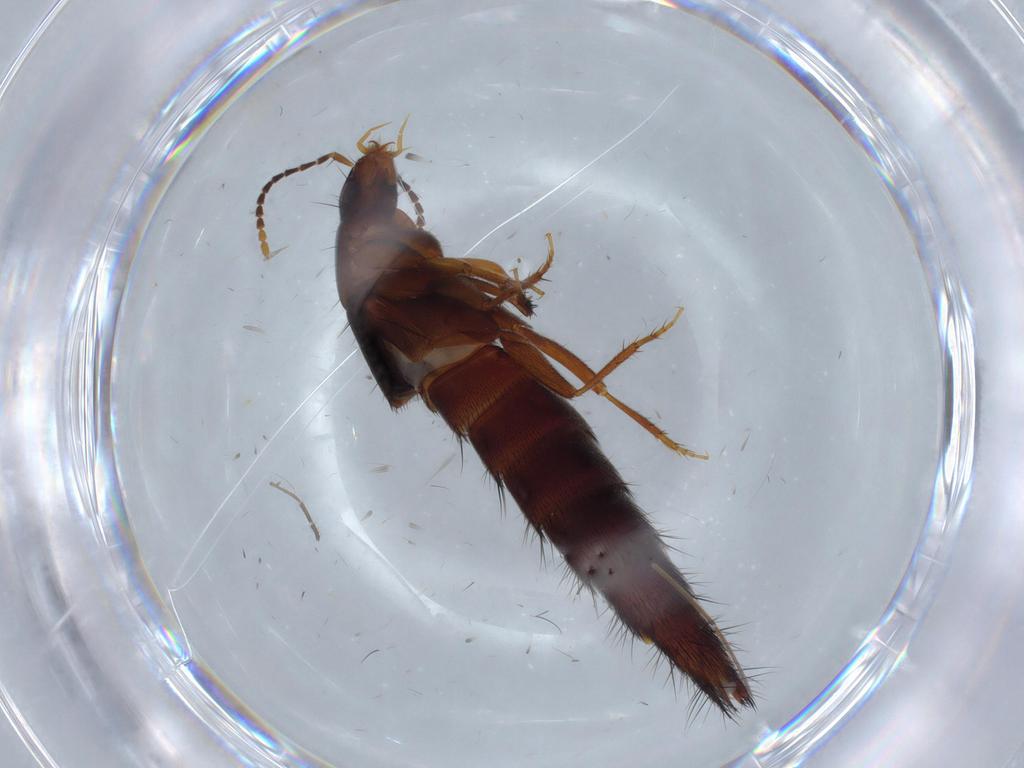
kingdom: Animalia
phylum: Arthropoda
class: Insecta
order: Coleoptera
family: Staphylinidae
